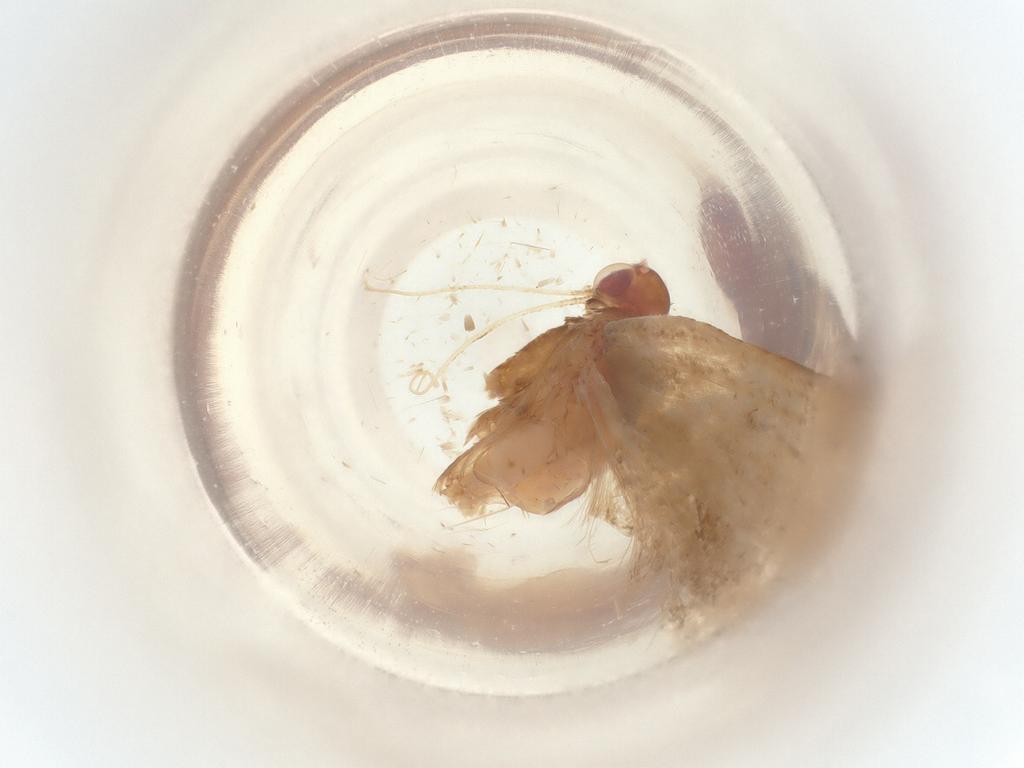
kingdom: Animalia
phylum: Arthropoda
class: Insecta
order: Lepidoptera
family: Gelechiidae
